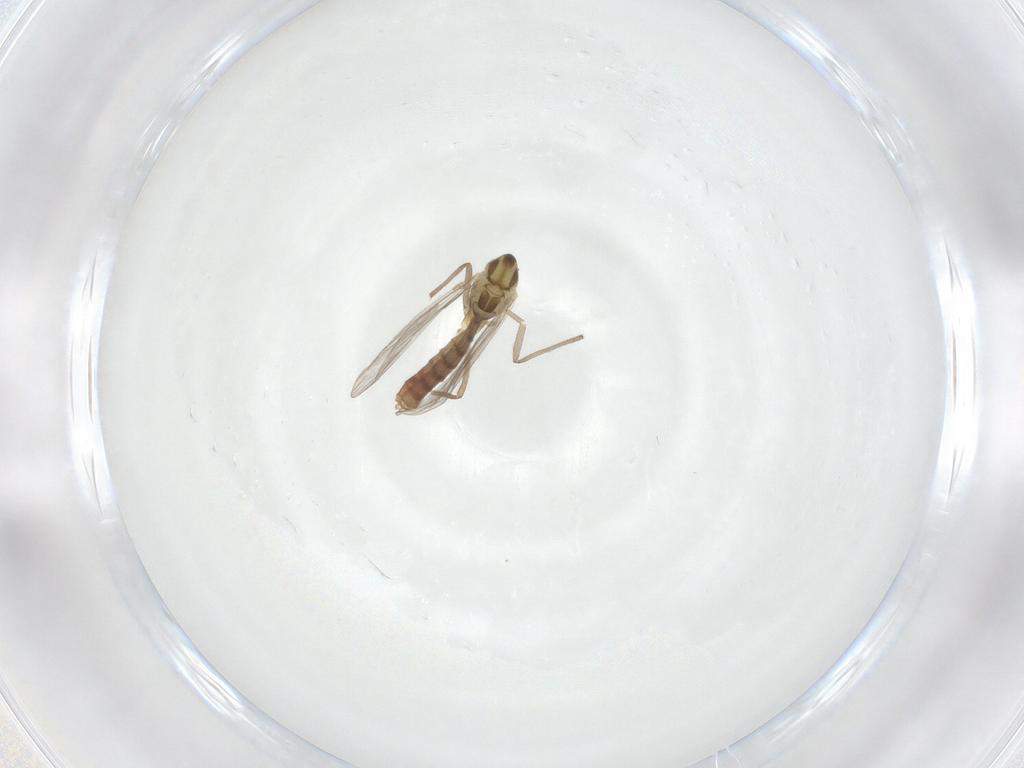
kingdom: Animalia
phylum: Arthropoda
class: Insecta
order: Diptera
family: Chironomidae
